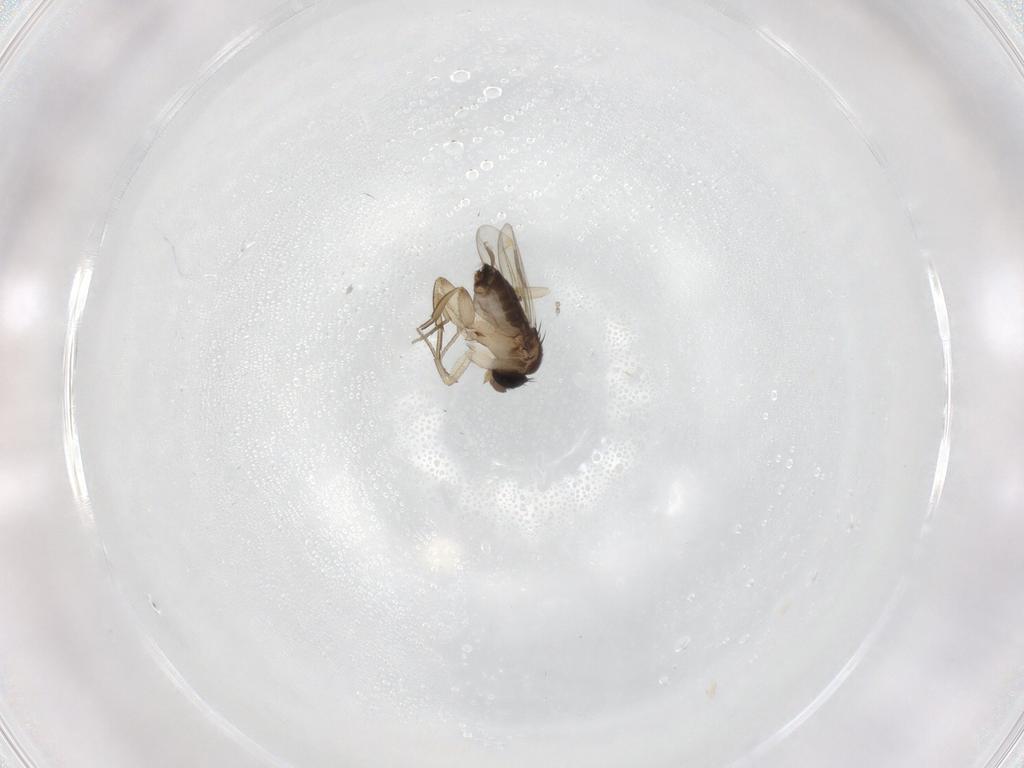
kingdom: Animalia
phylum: Arthropoda
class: Insecta
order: Diptera
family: Cecidomyiidae
